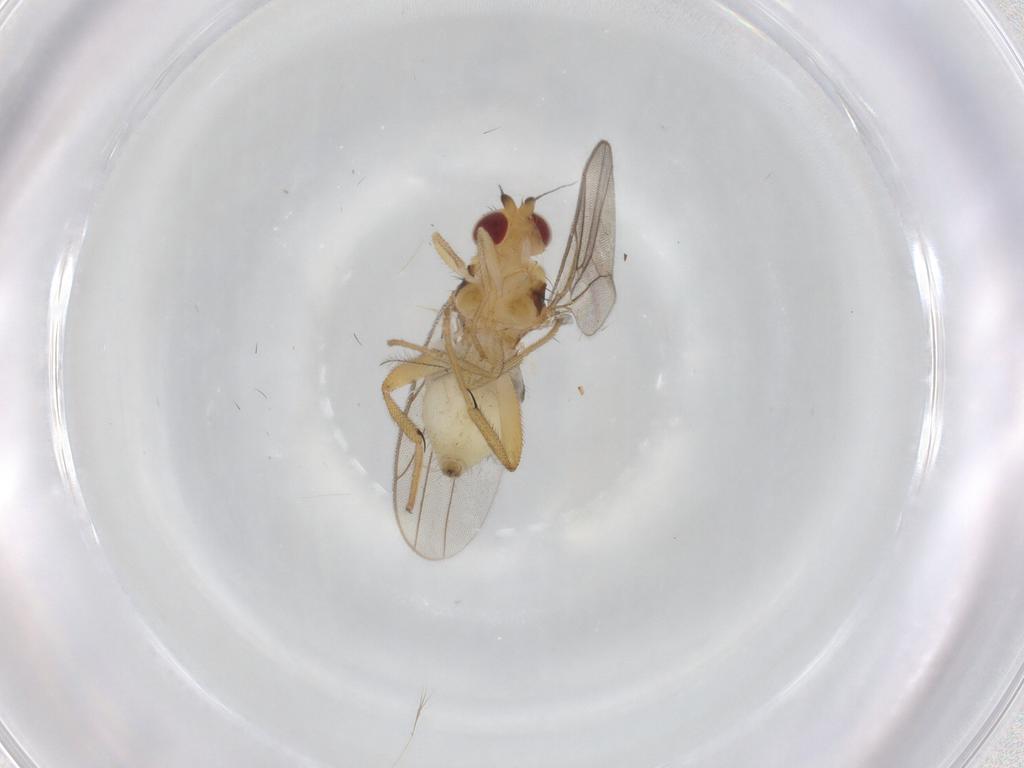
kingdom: Animalia
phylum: Arthropoda
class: Insecta
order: Diptera
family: Chloropidae
